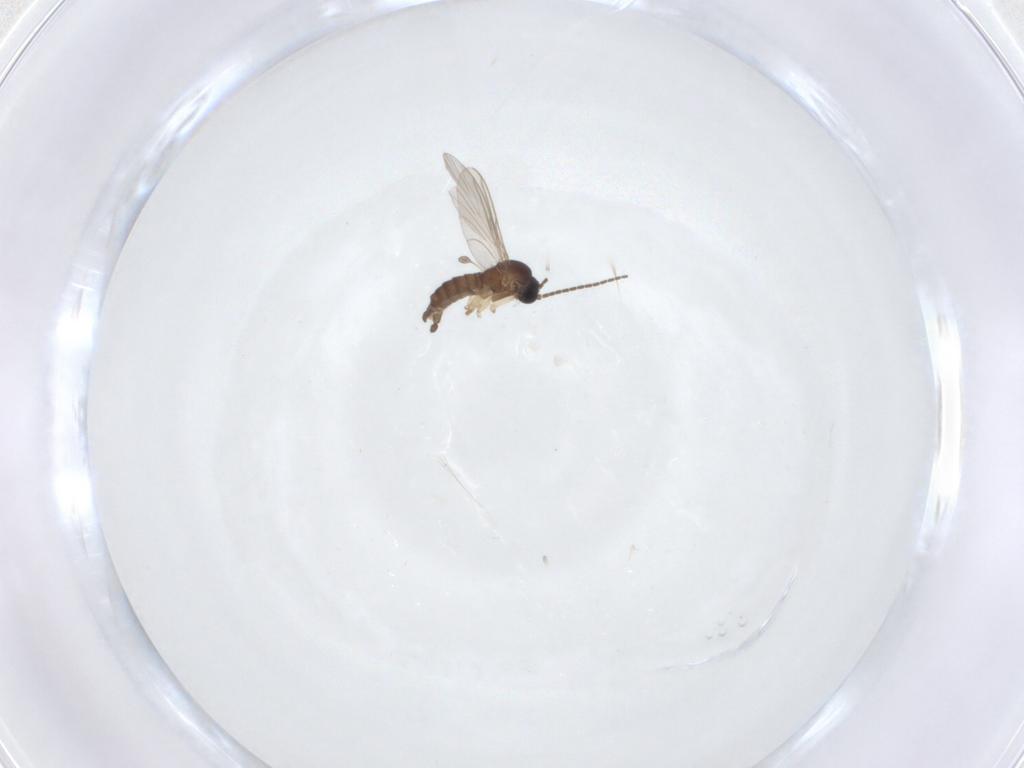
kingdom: Animalia
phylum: Arthropoda
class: Insecta
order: Diptera
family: Heleomyzidae
